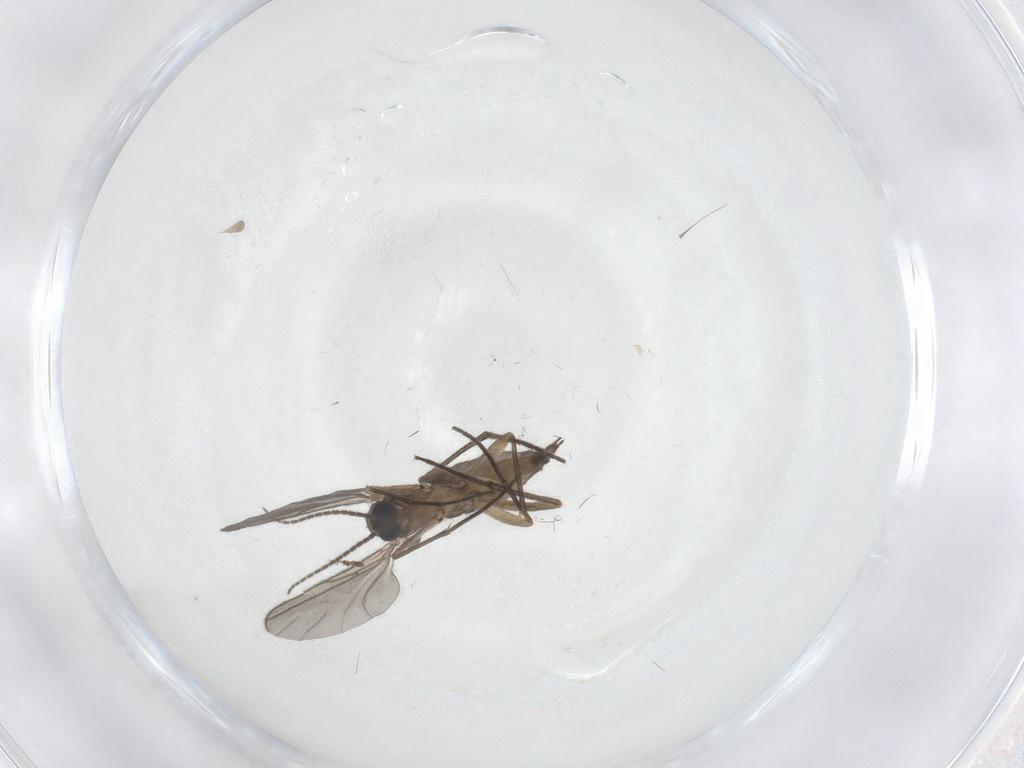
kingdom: Animalia
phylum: Arthropoda
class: Insecta
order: Diptera
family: Sciaridae
